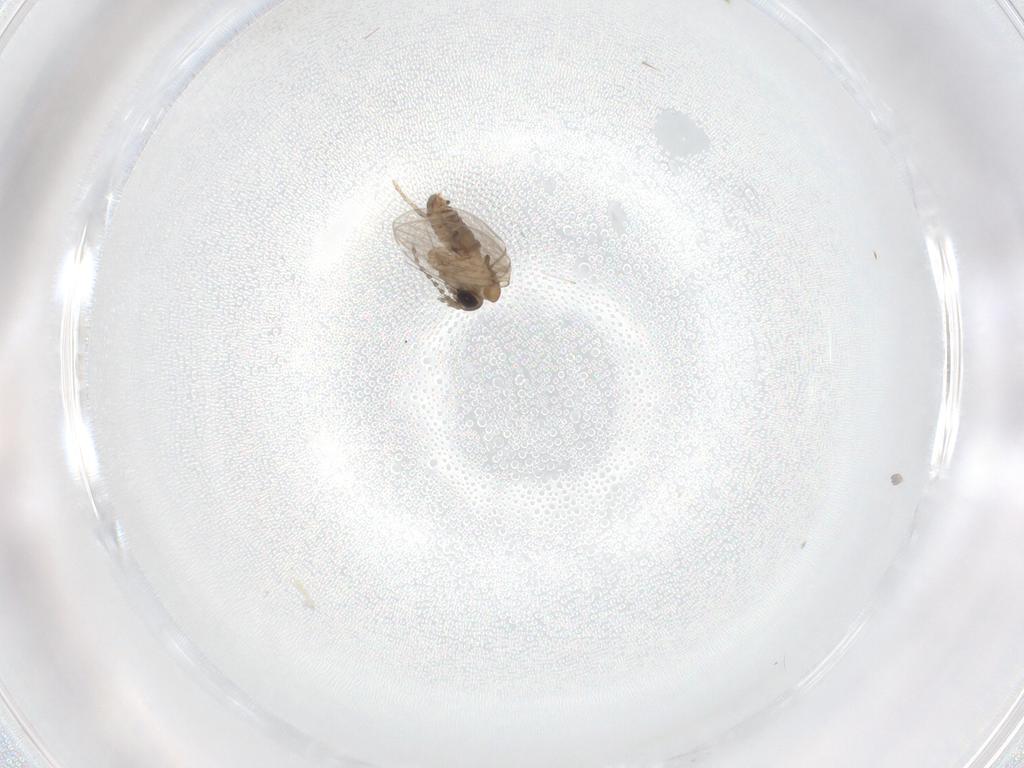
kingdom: Animalia
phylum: Arthropoda
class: Insecta
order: Diptera
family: Psychodidae
